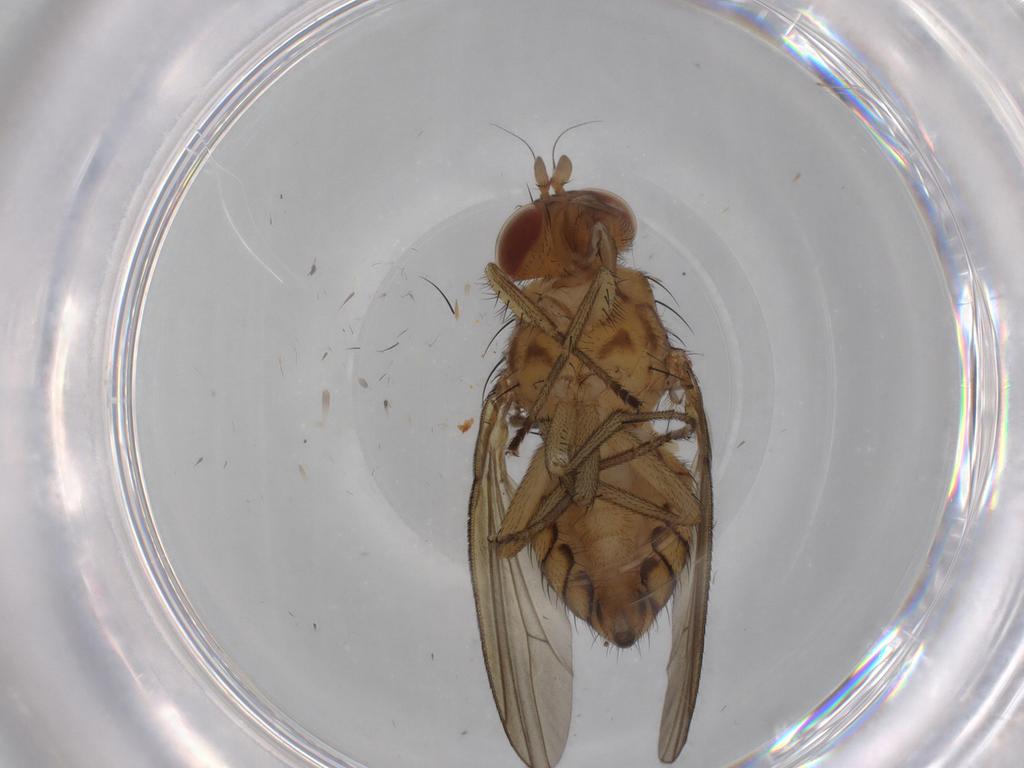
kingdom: Animalia
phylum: Arthropoda
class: Insecta
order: Diptera
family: Cecidomyiidae
